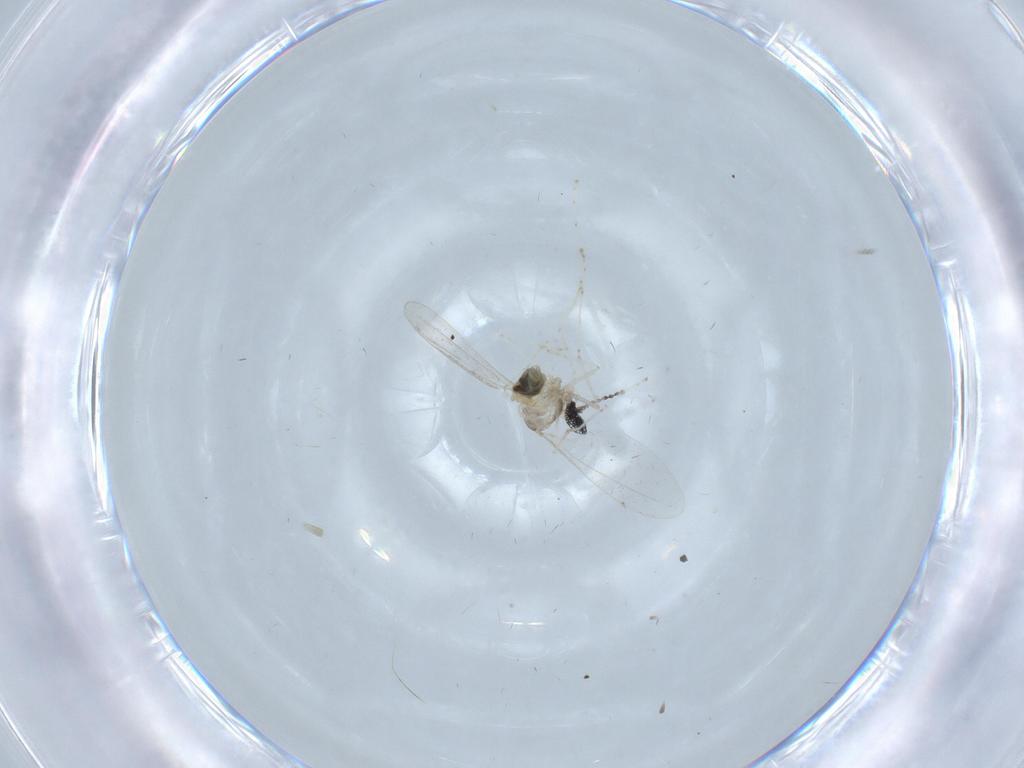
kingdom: Animalia
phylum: Arthropoda
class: Insecta
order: Diptera
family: Cecidomyiidae
